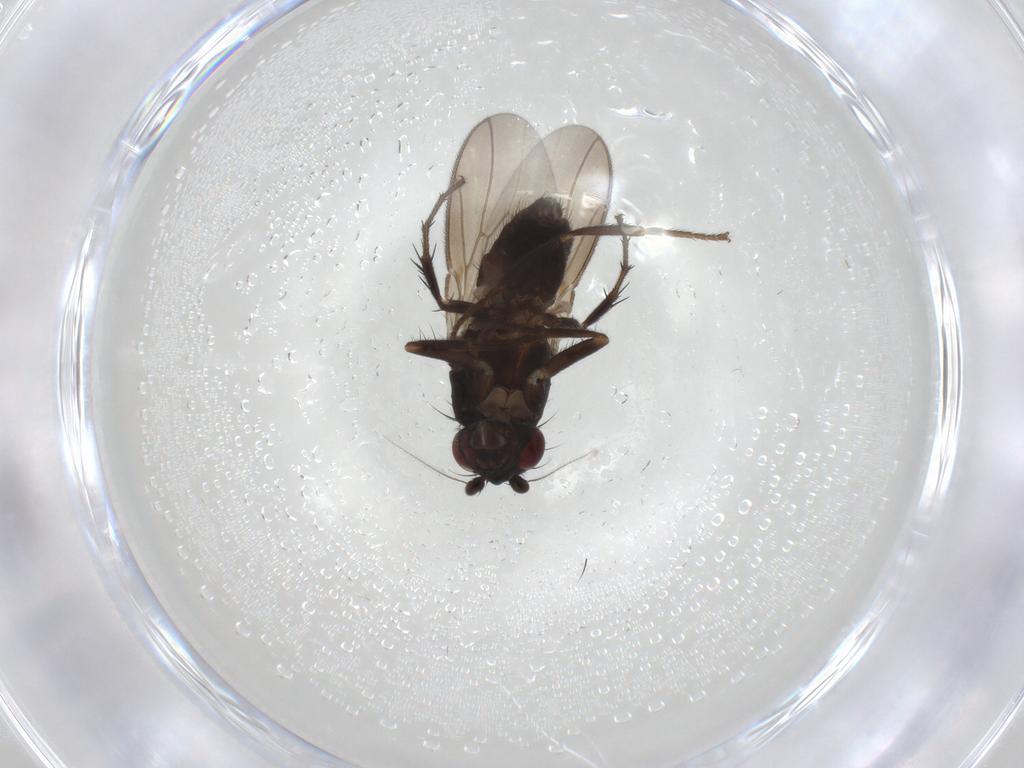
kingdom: Animalia
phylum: Arthropoda
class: Insecta
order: Diptera
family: Sphaeroceridae
